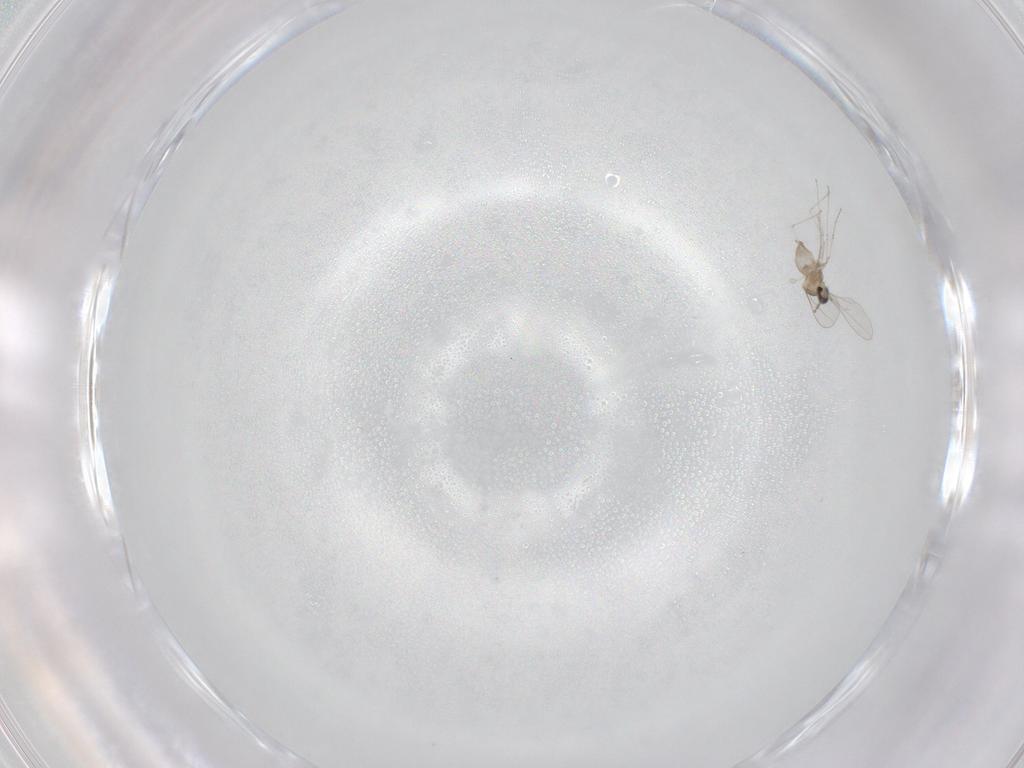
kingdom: Animalia
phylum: Arthropoda
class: Insecta
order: Diptera
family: Cecidomyiidae
